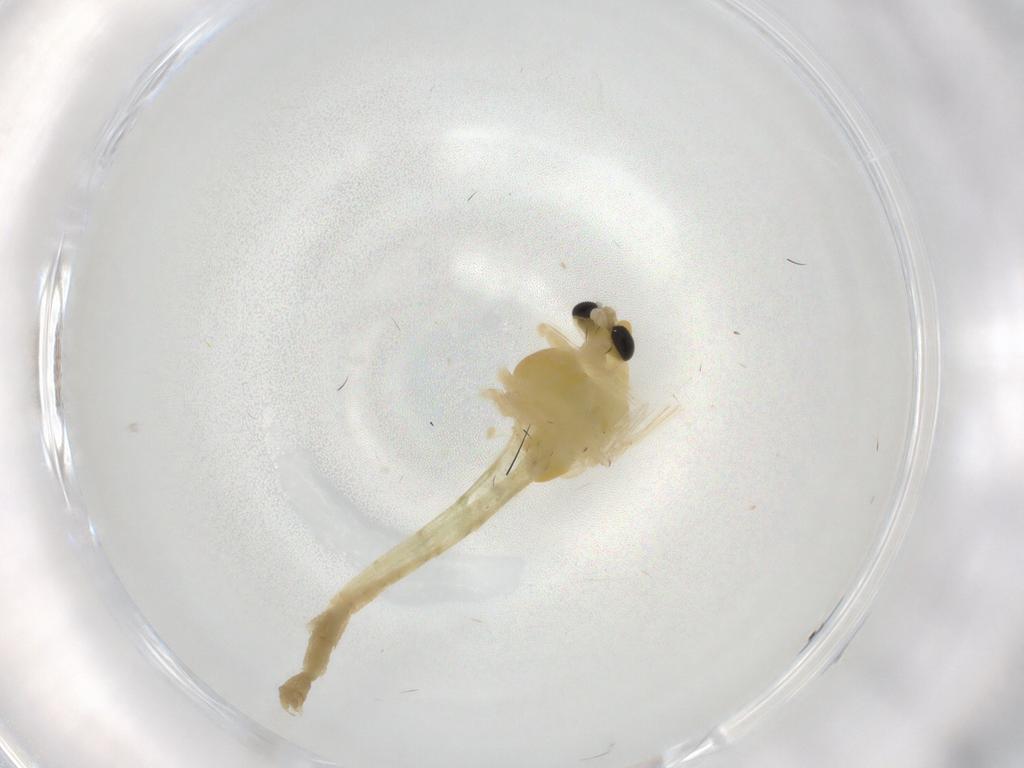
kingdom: Animalia
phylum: Arthropoda
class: Insecta
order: Diptera
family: Chironomidae
